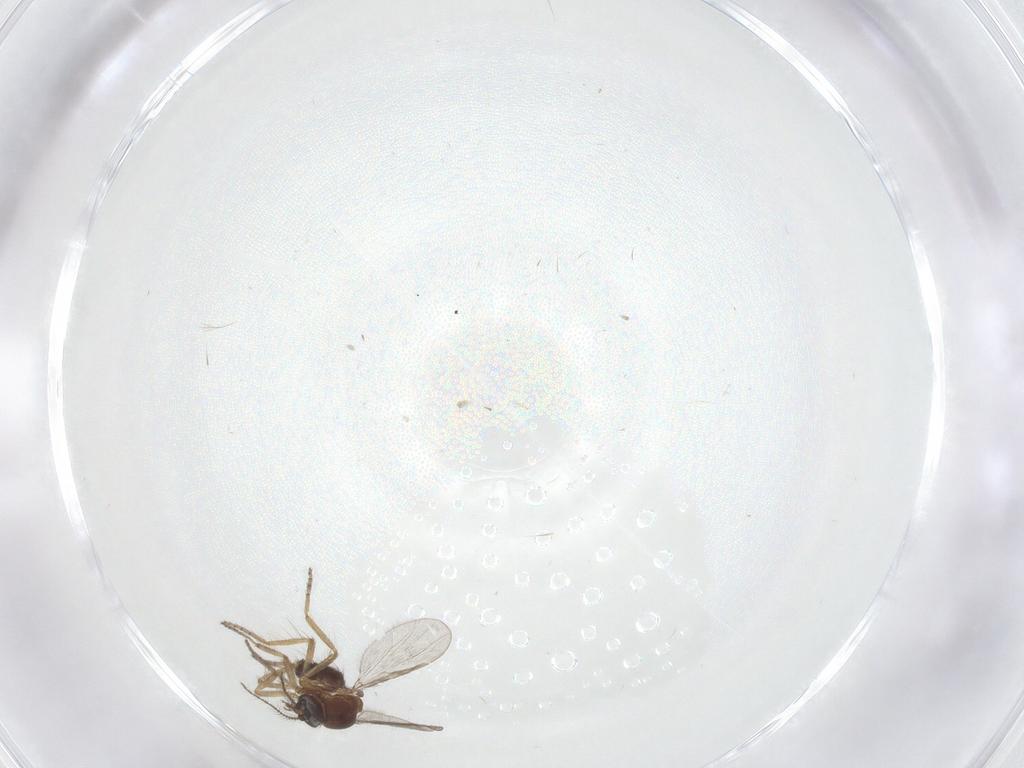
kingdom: Animalia
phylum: Arthropoda
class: Insecta
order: Diptera
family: Ceratopogonidae
